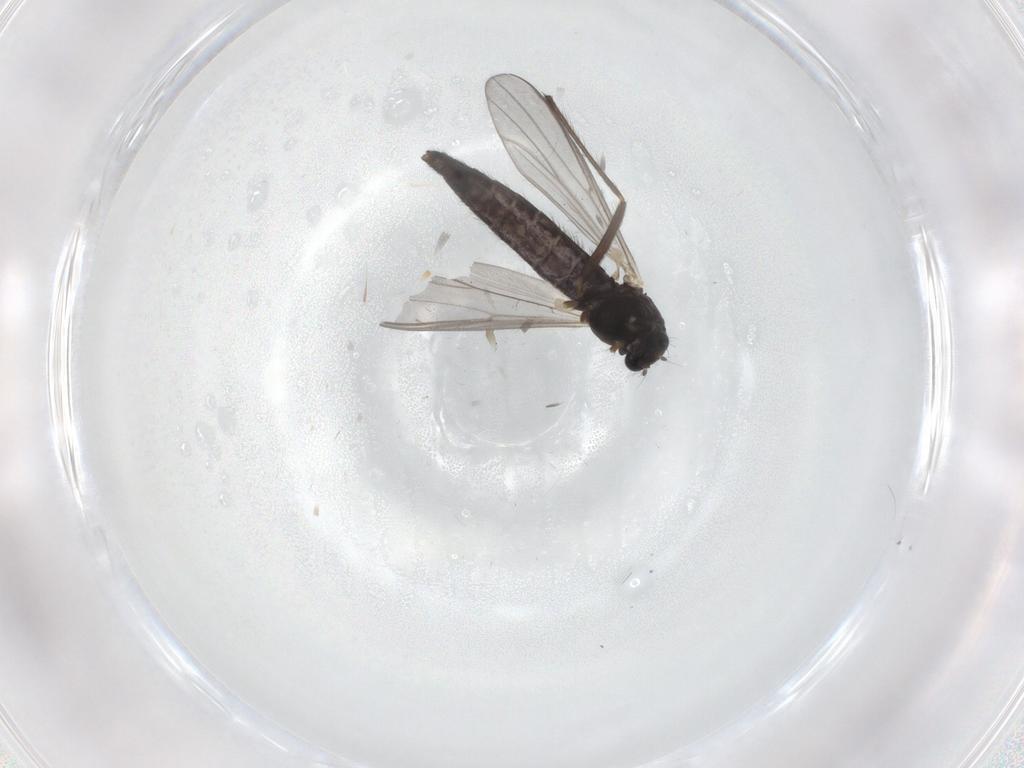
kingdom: Animalia
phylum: Arthropoda
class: Insecta
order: Diptera
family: Chironomidae
